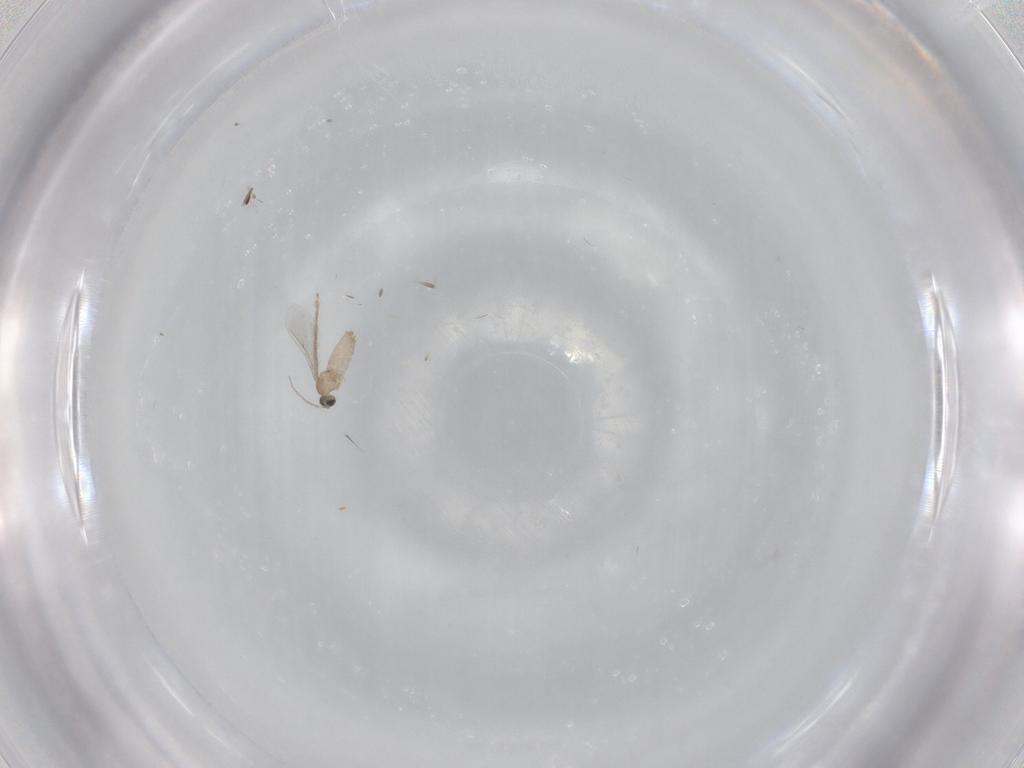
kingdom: Animalia
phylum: Arthropoda
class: Insecta
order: Diptera
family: Cecidomyiidae
